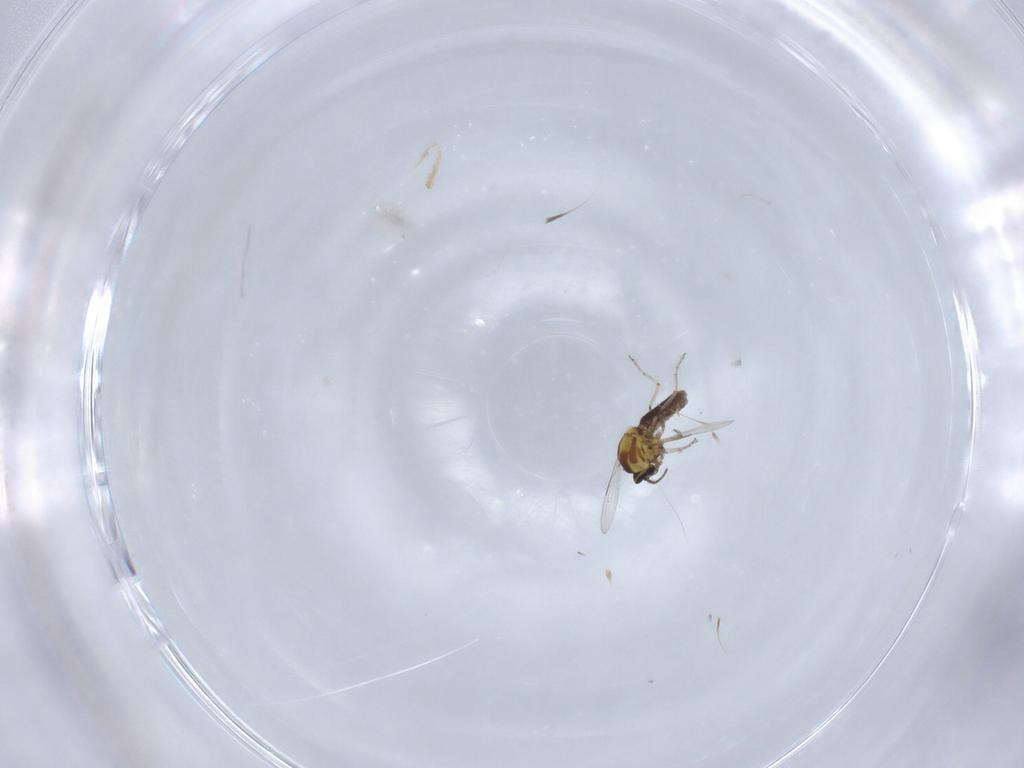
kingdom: Animalia
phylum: Arthropoda
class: Insecta
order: Diptera
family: Ceratopogonidae
